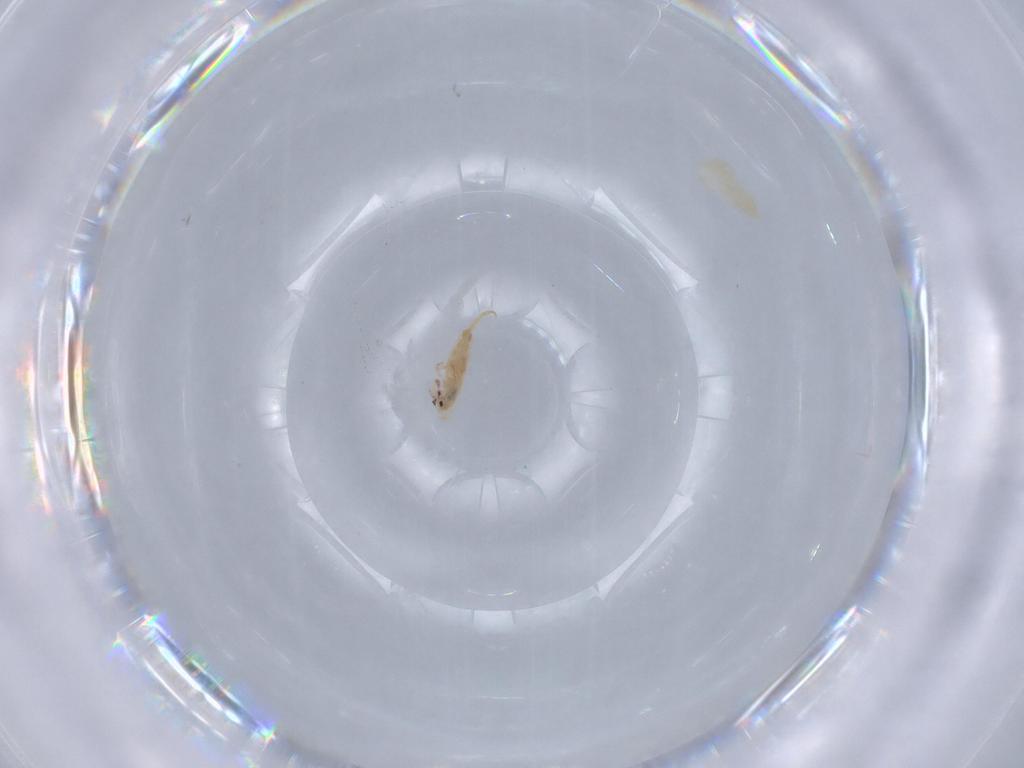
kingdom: Animalia
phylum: Arthropoda
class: Collembola
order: Entomobryomorpha
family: Entomobryidae
